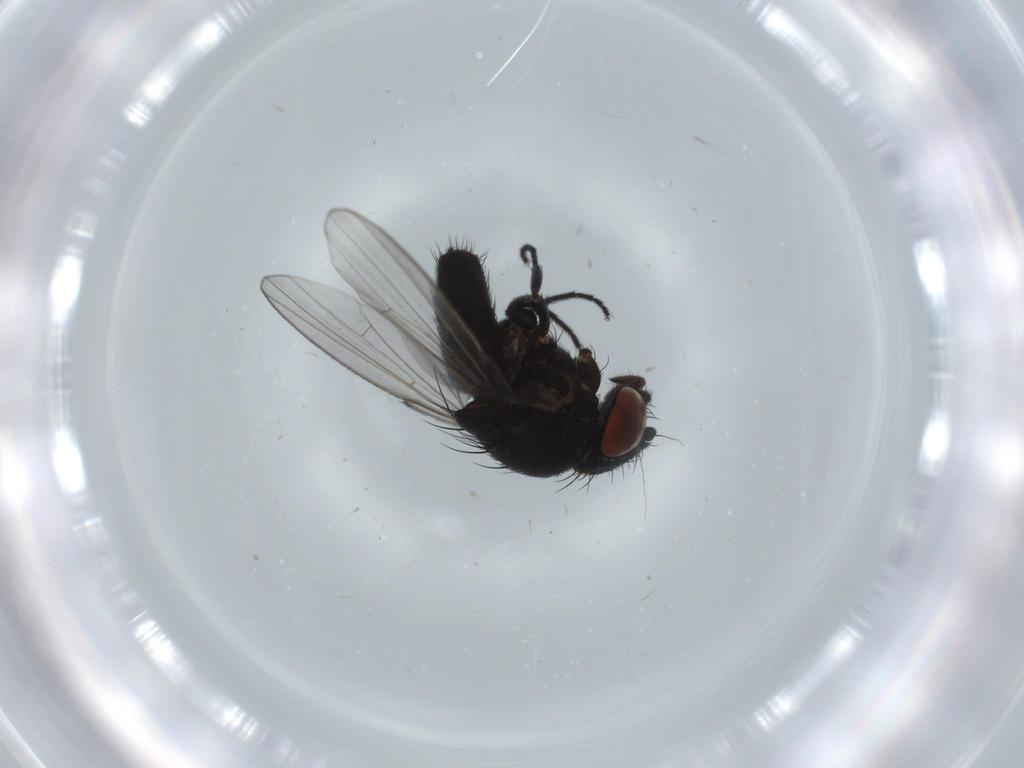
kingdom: Animalia
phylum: Arthropoda
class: Insecta
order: Diptera
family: Milichiidae
